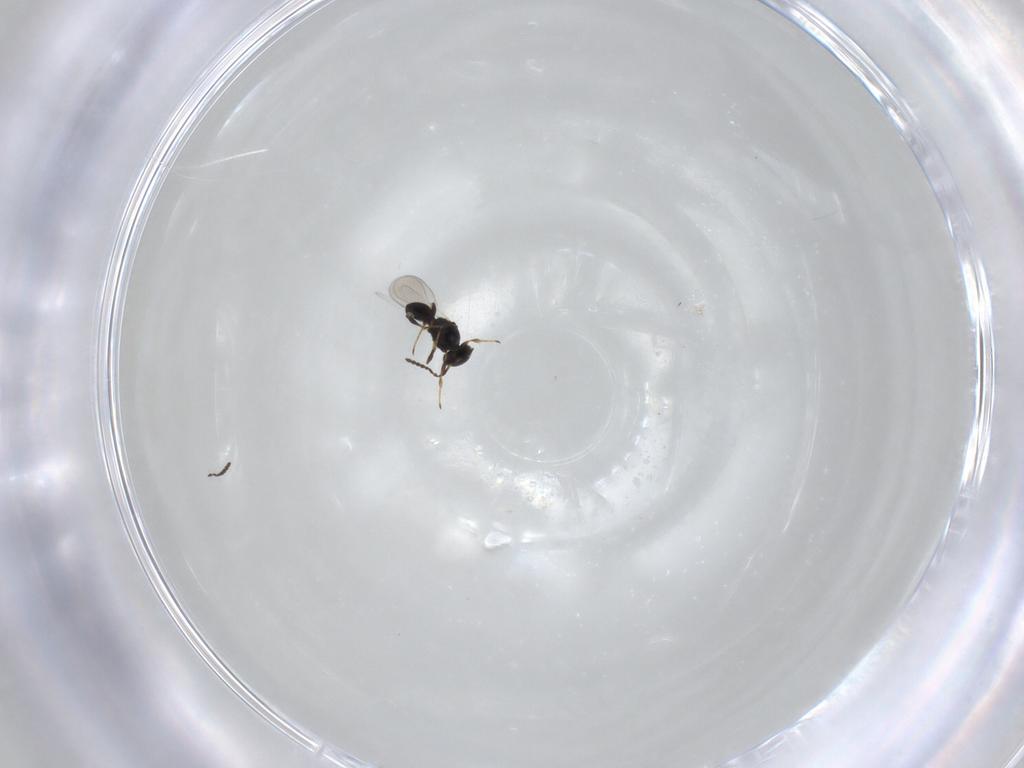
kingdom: Animalia
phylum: Arthropoda
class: Insecta
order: Hymenoptera
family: Platygastridae
